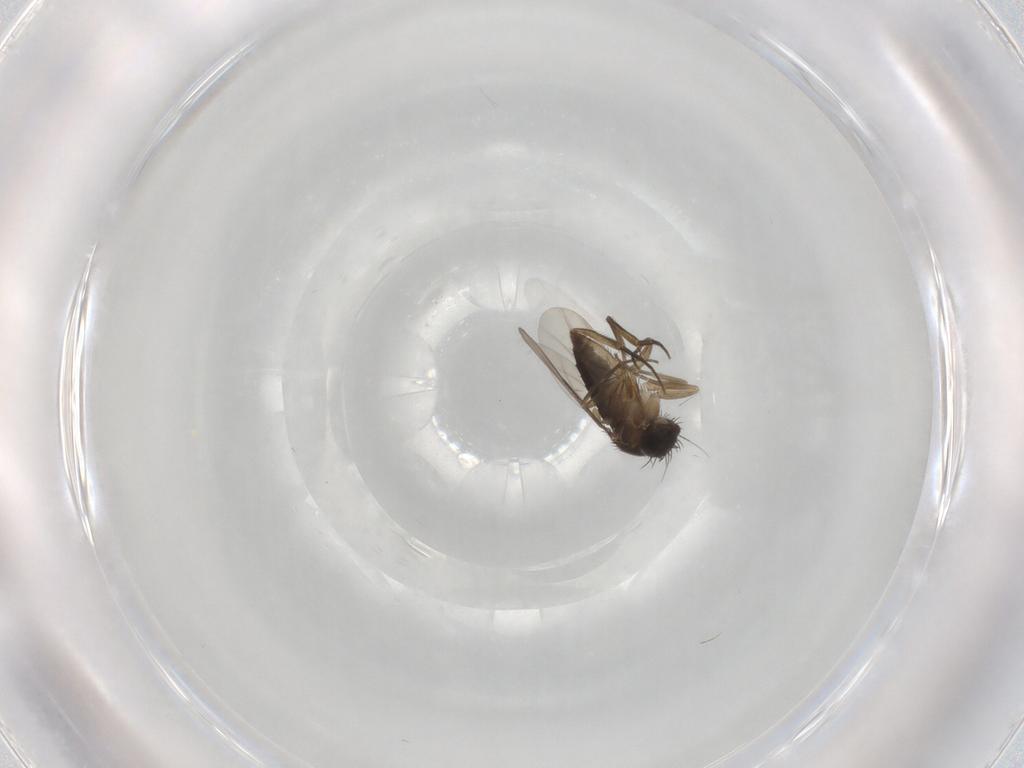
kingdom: Animalia
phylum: Arthropoda
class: Insecta
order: Diptera
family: Phoridae
